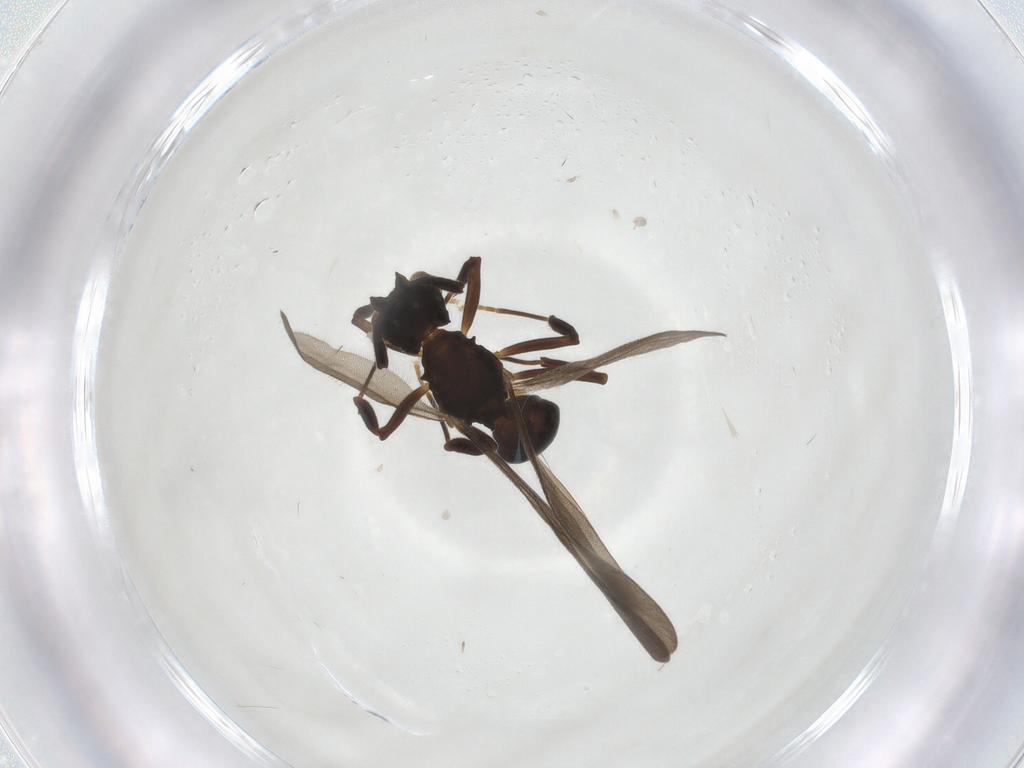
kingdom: Animalia
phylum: Arthropoda
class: Insecta
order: Hymenoptera
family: Formicidae
